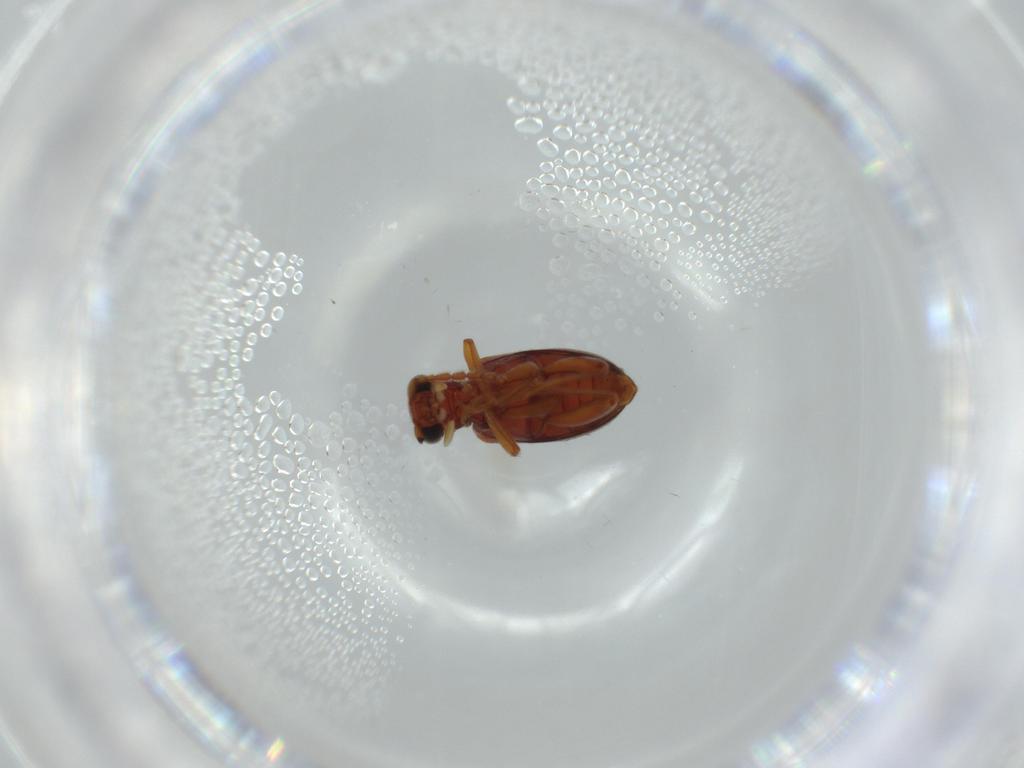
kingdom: Animalia
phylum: Arthropoda
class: Insecta
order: Coleoptera
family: Aderidae
